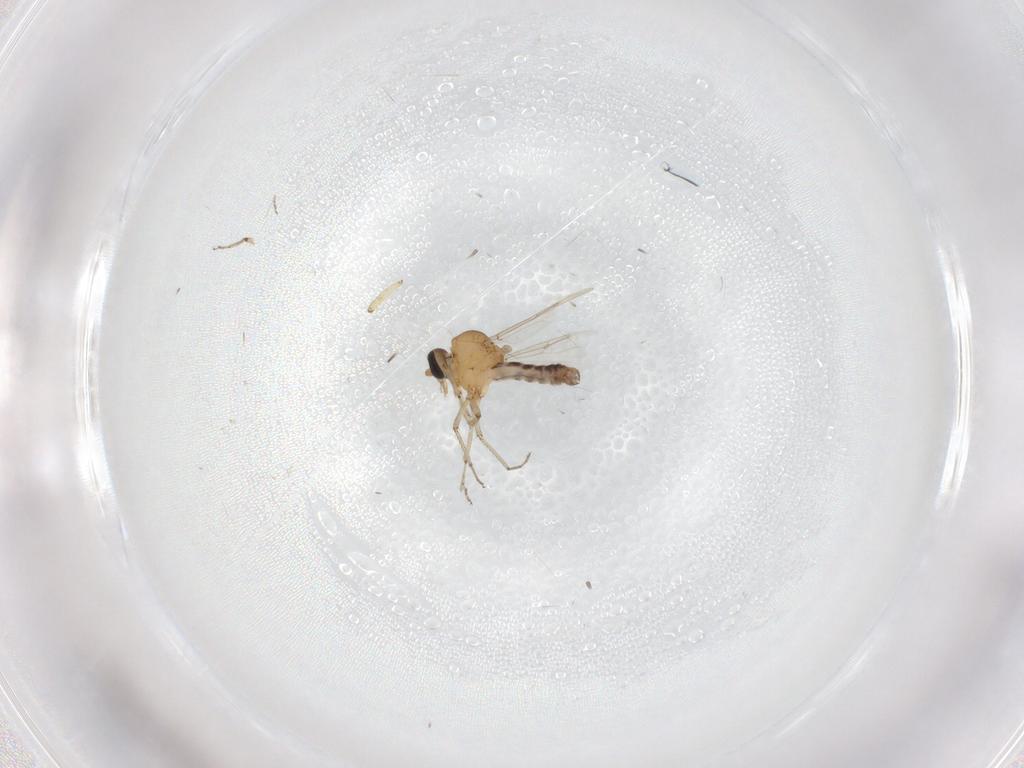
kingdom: Animalia
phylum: Arthropoda
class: Insecta
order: Diptera
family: Ceratopogonidae
